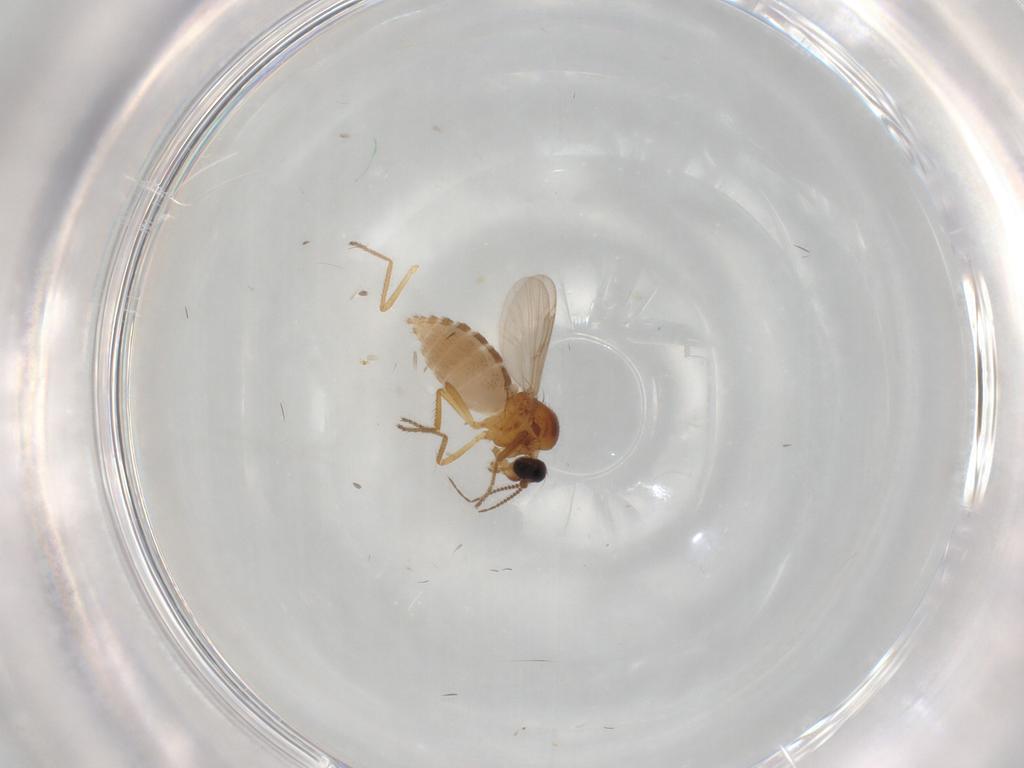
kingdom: Animalia
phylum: Arthropoda
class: Insecta
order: Diptera
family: Ceratopogonidae
